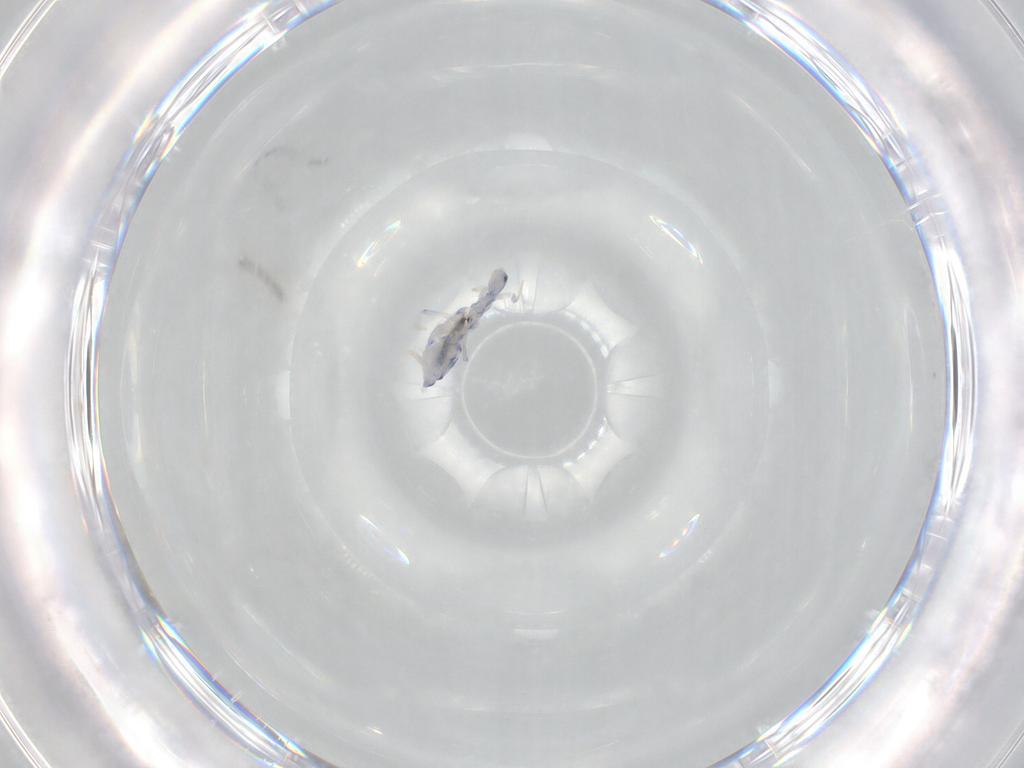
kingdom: Animalia
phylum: Arthropoda
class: Collembola
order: Entomobryomorpha
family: Entomobryidae
